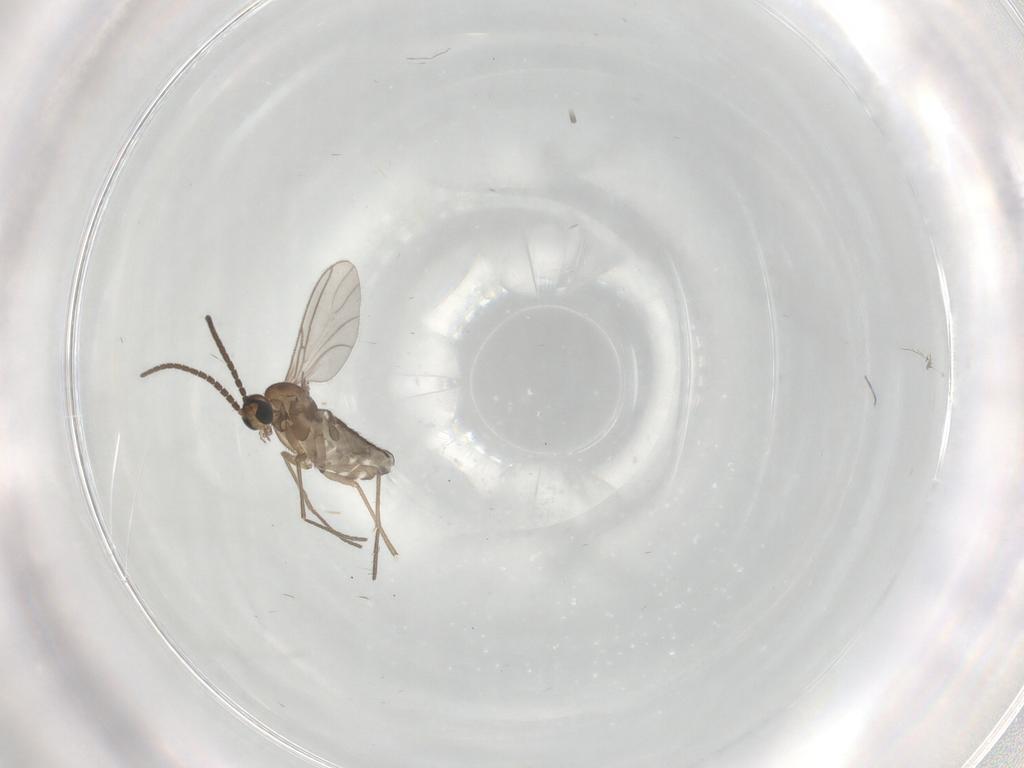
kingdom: Animalia
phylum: Arthropoda
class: Insecta
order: Diptera
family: Sciaridae
